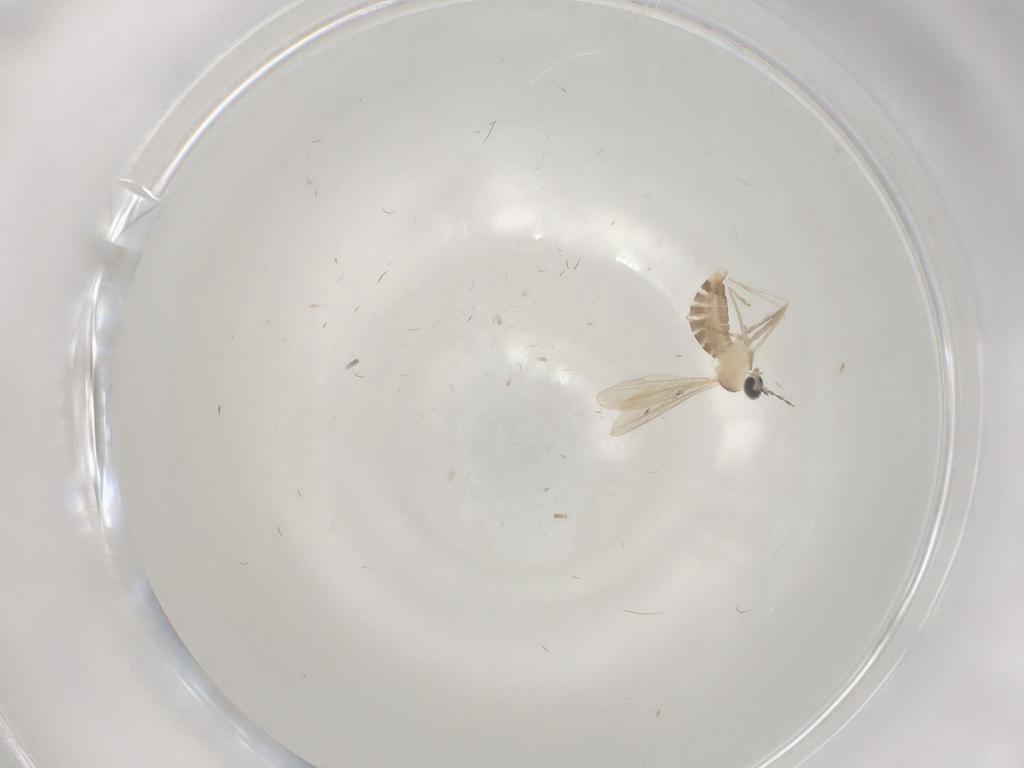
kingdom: Animalia
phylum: Arthropoda
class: Insecta
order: Diptera
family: Cecidomyiidae
